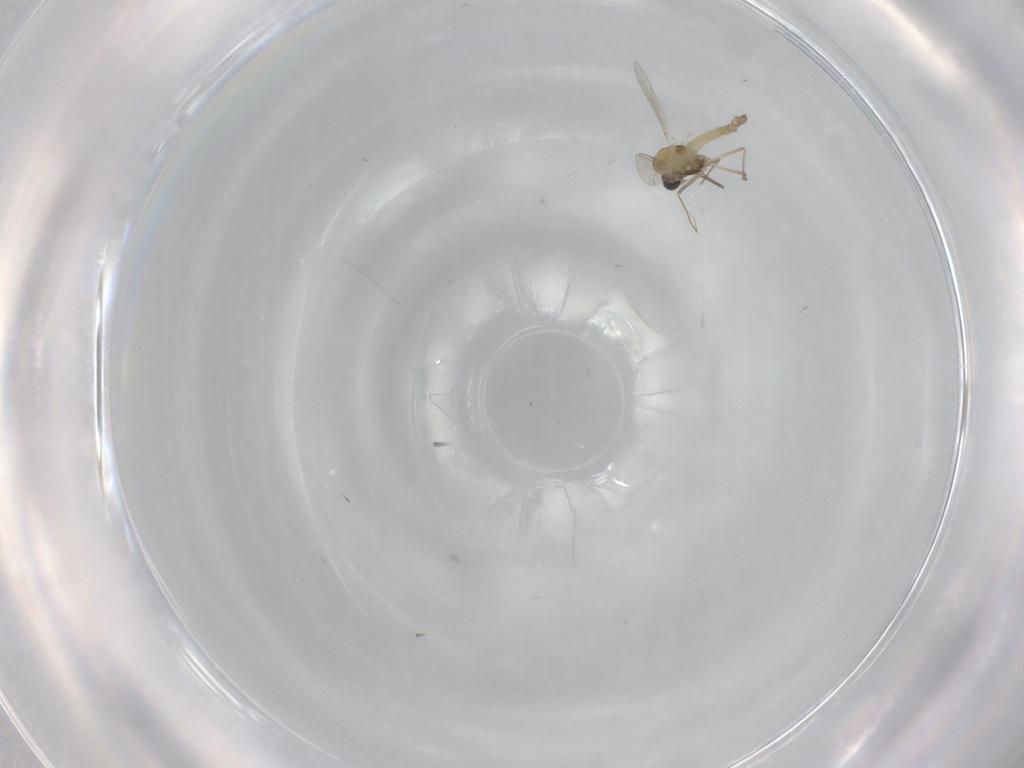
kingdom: Animalia
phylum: Arthropoda
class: Insecta
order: Diptera
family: Chironomidae
